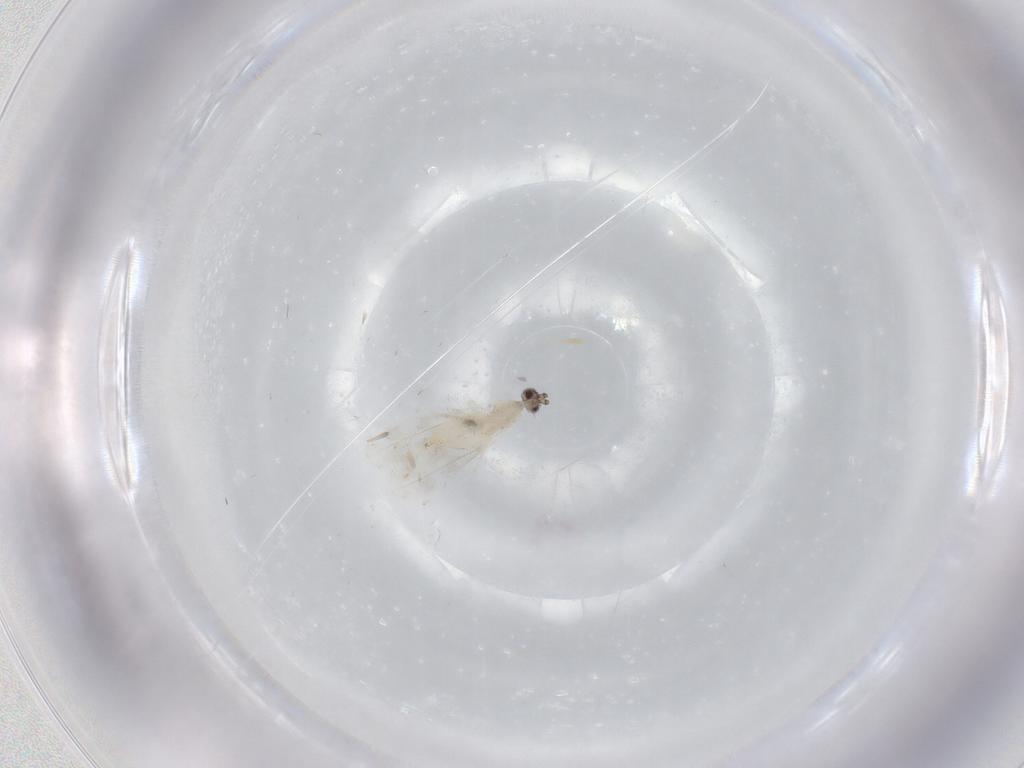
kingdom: Animalia
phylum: Arthropoda
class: Insecta
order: Diptera
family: Cecidomyiidae
